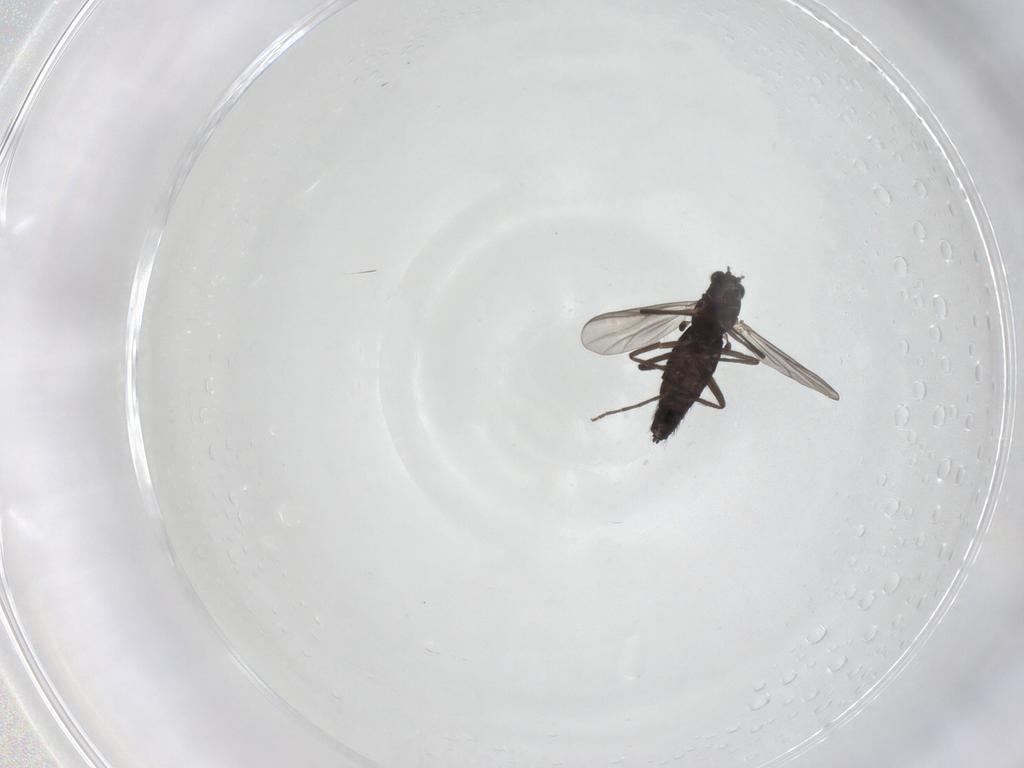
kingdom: Animalia
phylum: Arthropoda
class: Insecta
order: Diptera
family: Chironomidae
